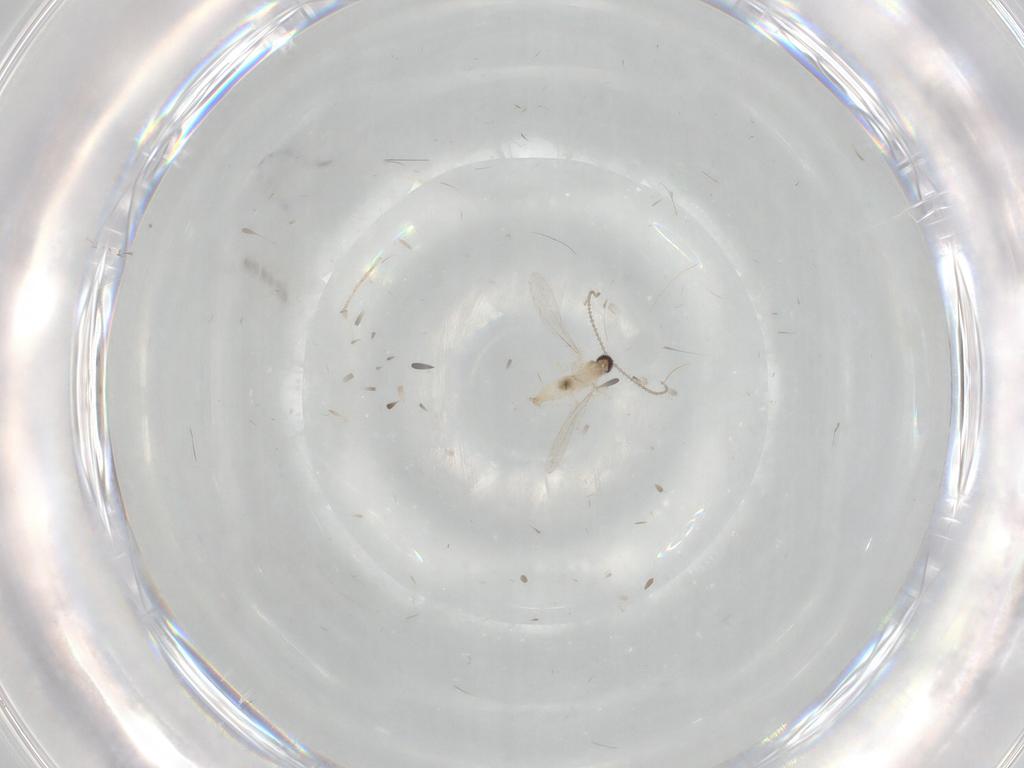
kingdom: Animalia
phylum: Arthropoda
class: Insecta
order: Diptera
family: Cecidomyiidae
